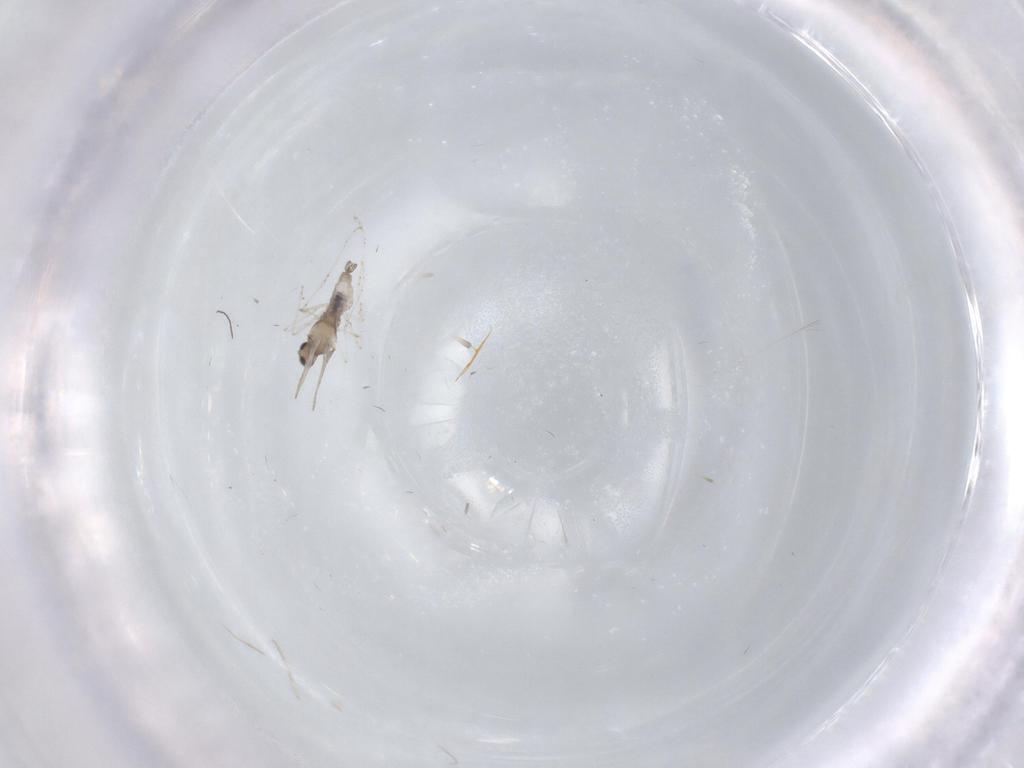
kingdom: Animalia
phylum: Arthropoda
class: Insecta
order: Diptera
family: Cecidomyiidae
